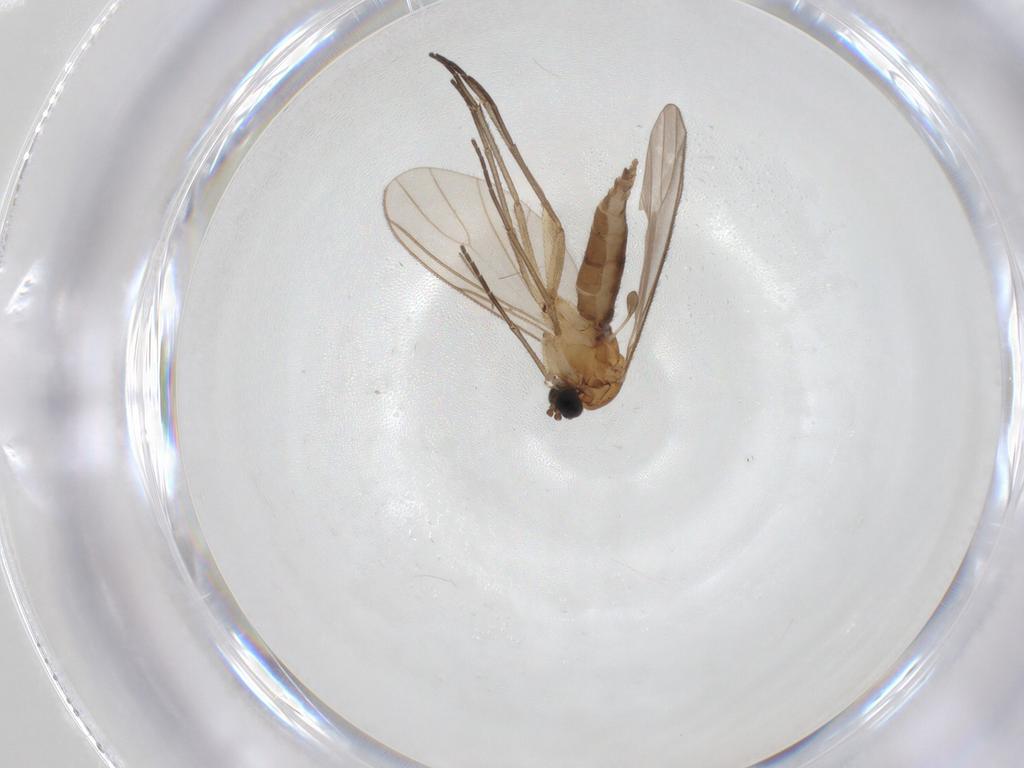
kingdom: Animalia
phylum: Arthropoda
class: Insecta
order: Diptera
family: Sciaridae
